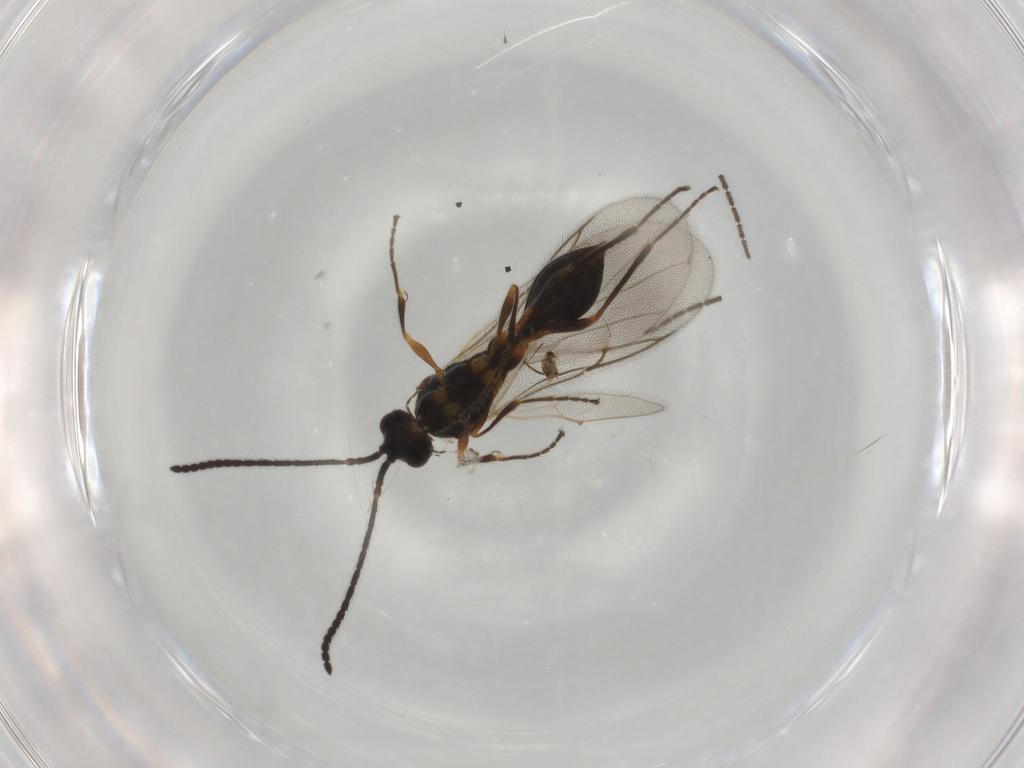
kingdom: Animalia
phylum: Arthropoda
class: Insecta
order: Hymenoptera
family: Diapriidae
